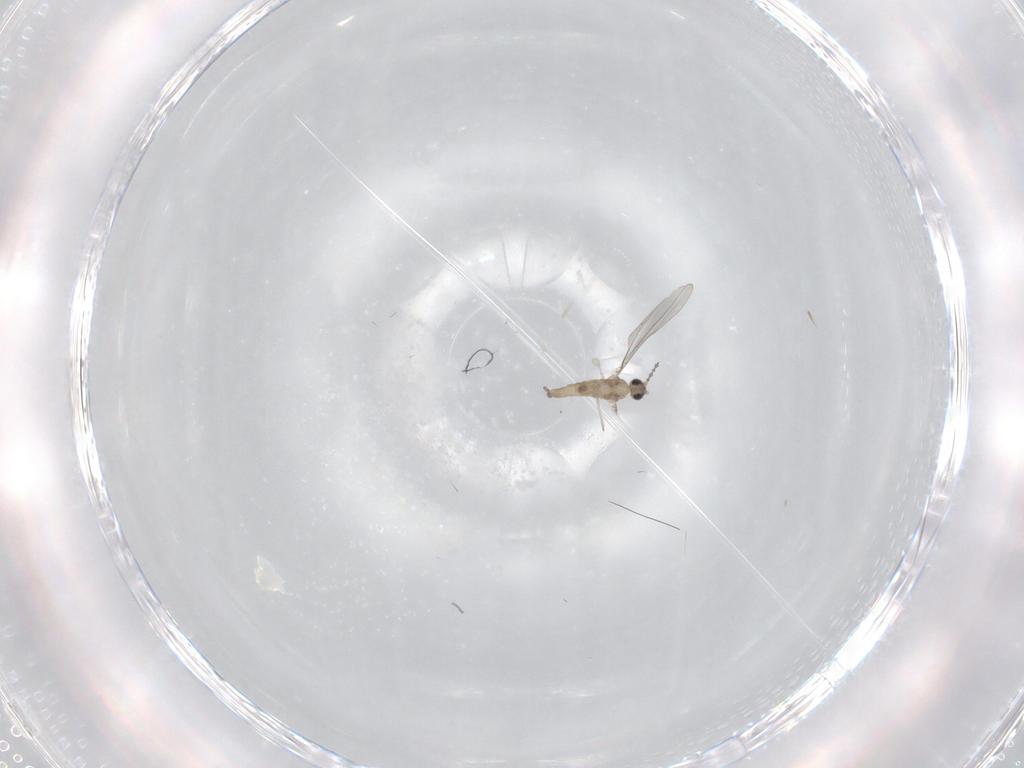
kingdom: Animalia
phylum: Arthropoda
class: Insecta
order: Diptera
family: Cecidomyiidae
